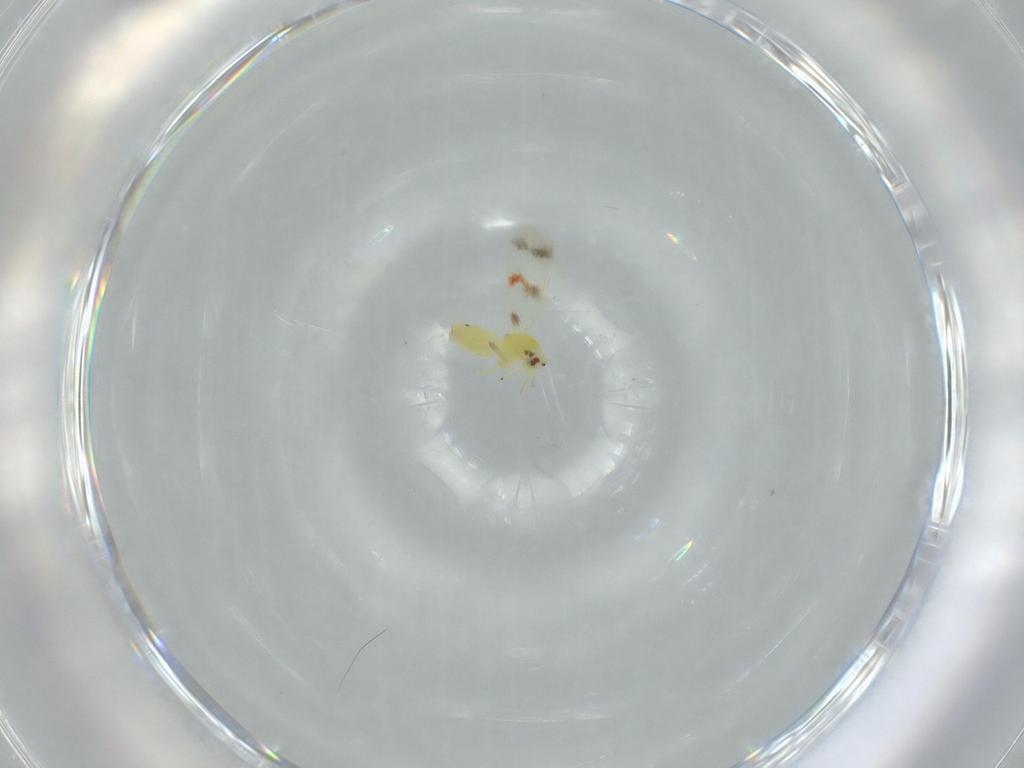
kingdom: Animalia
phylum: Arthropoda
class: Insecta
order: Hemiptera
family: Aleyrodidae
